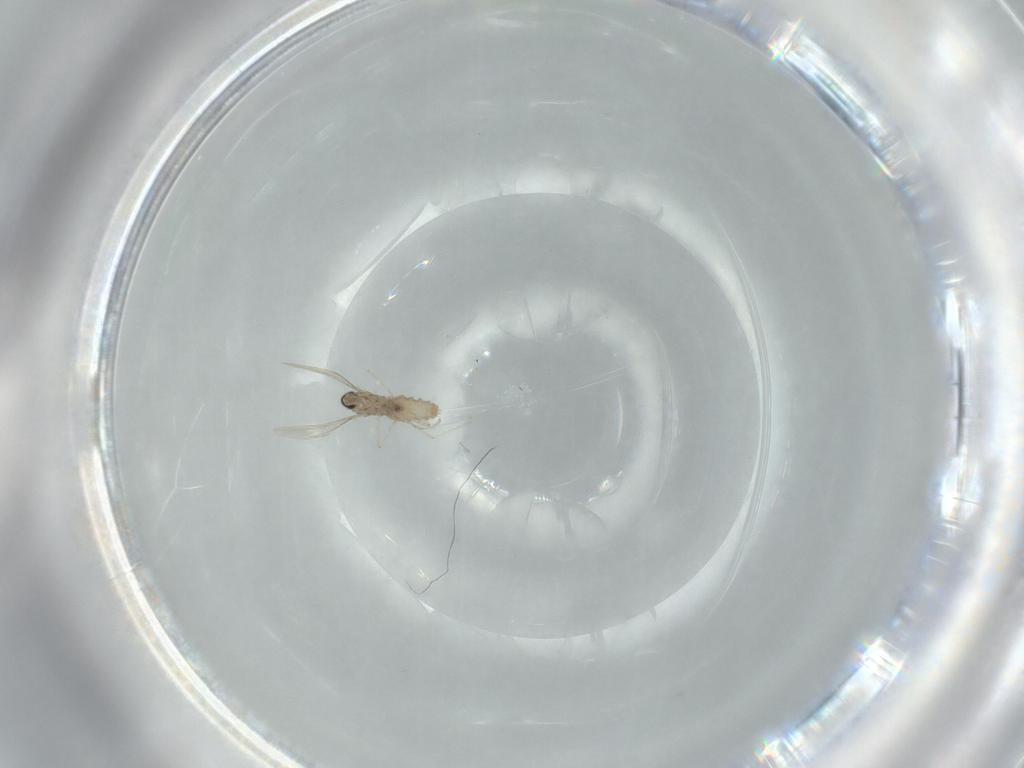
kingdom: Animalia
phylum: Arthropoda
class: Insecta
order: Diptera
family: Cecidomyiidae
